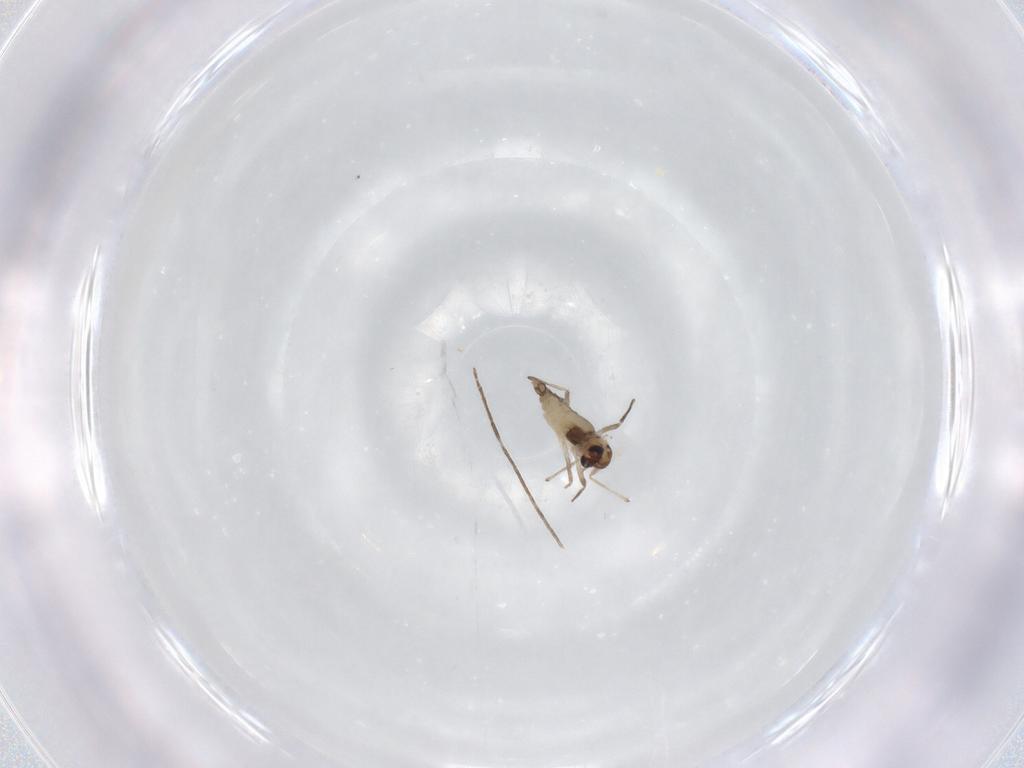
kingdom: Animalia
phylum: Arthropoda
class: Insecta
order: Diptera
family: Chironomidae
